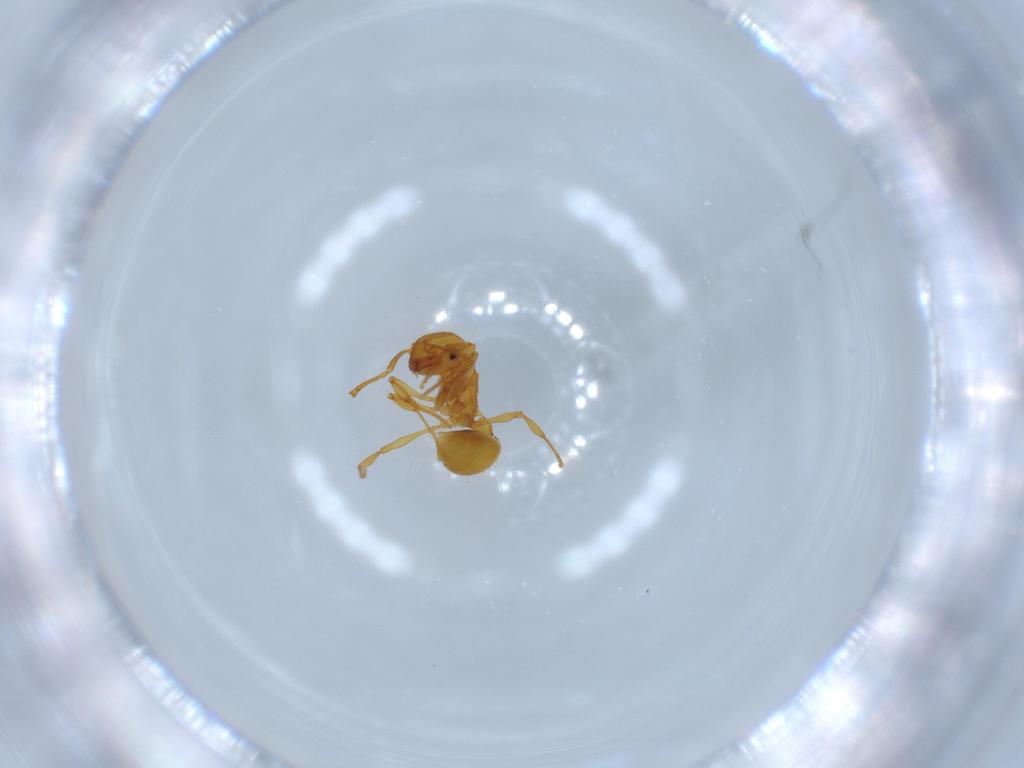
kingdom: Animalia
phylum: Arthropoda
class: Insecta
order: Hymenoptera
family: Formicidae
